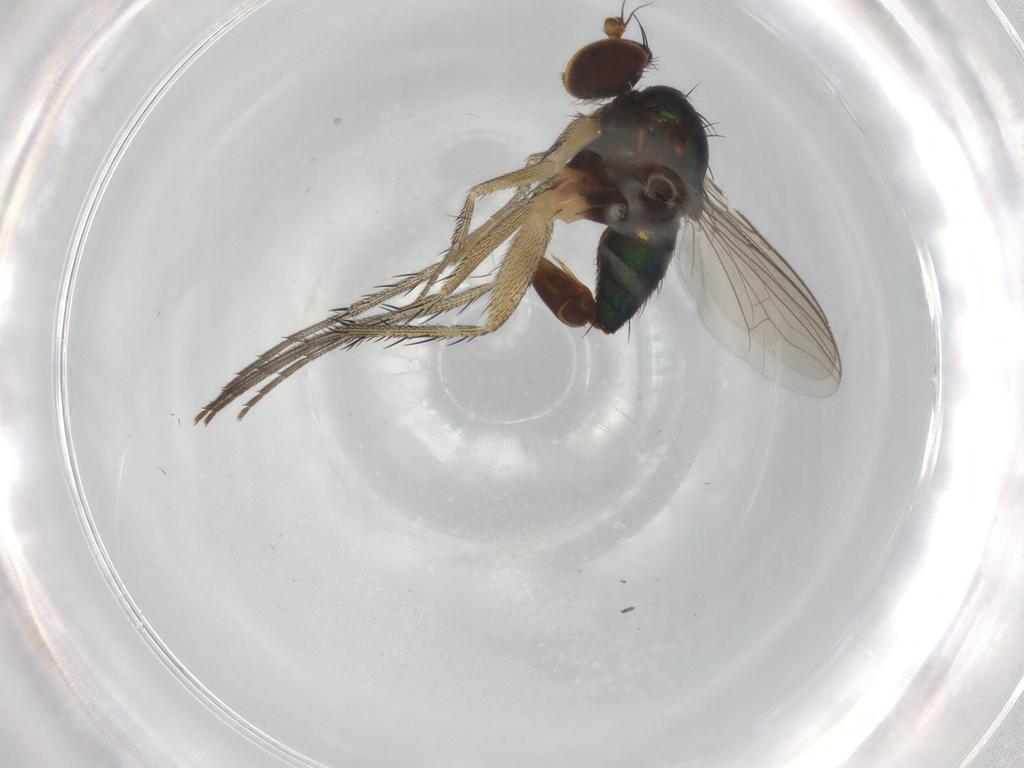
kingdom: Animalia
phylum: Arthropoda
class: Insecta
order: Diptera
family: Dolichopodidae
